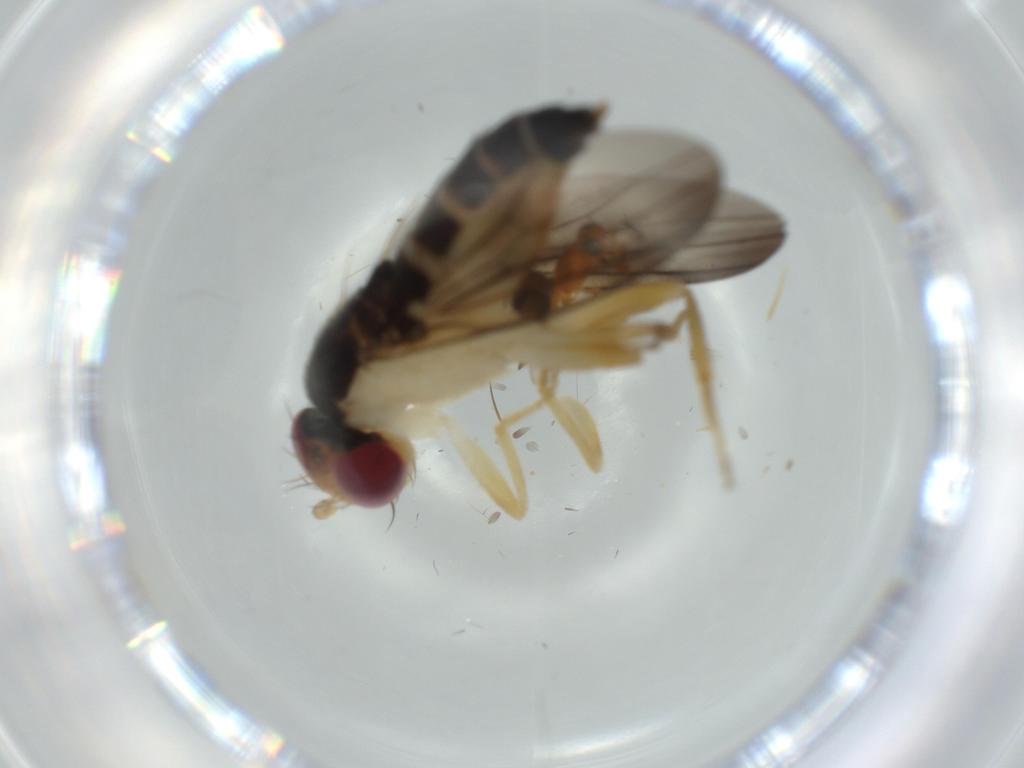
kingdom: Animalia
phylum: Arthropoda
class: Insecta
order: Diptera
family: Phoridae
